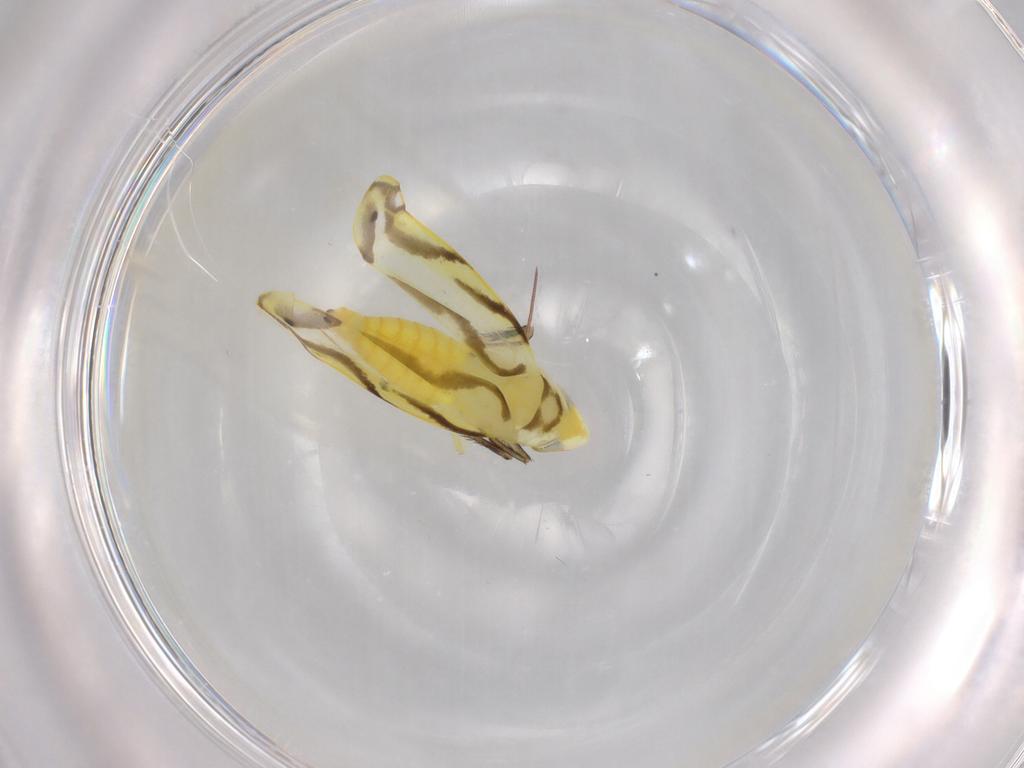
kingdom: Animalia
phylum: Arthropoda
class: Insecta
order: Hemiptera
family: Cicadellidae
